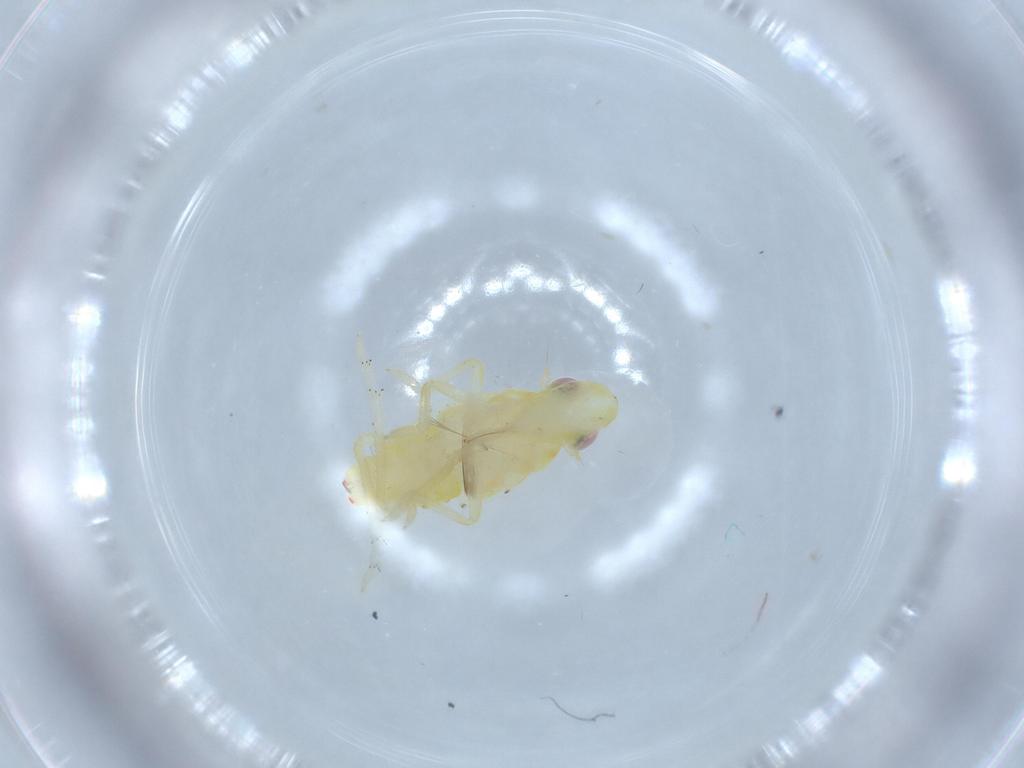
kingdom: Animalia
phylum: Arthropoda
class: Insecta
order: Hemiptera
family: Tropiduchidae
